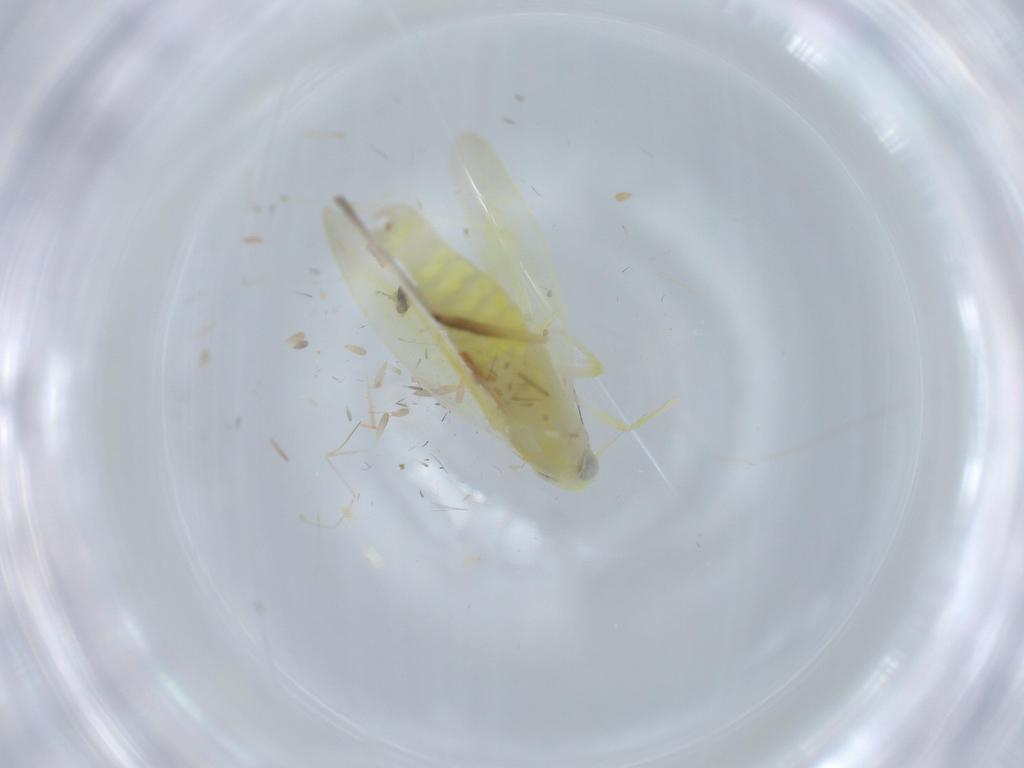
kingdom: Animalia
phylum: Arthropoda
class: Insecta
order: Hemiptera
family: Cicadellidae
